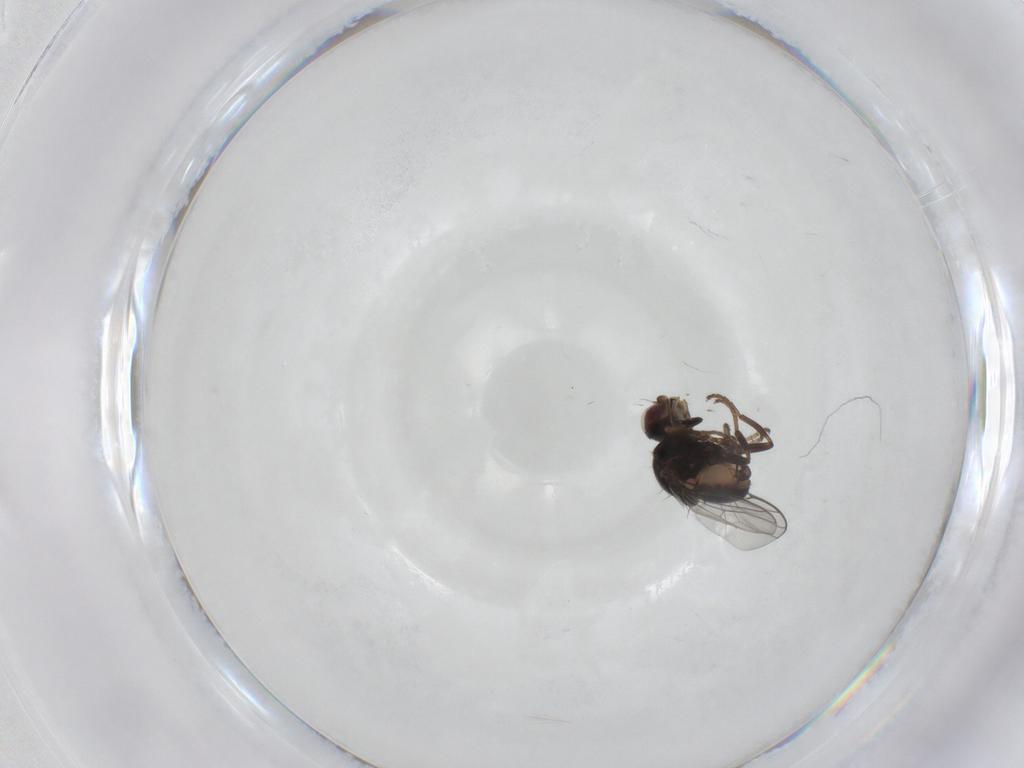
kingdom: Animalia
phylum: Arthropoda
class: Insecta
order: Diptera
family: Chloropidae
